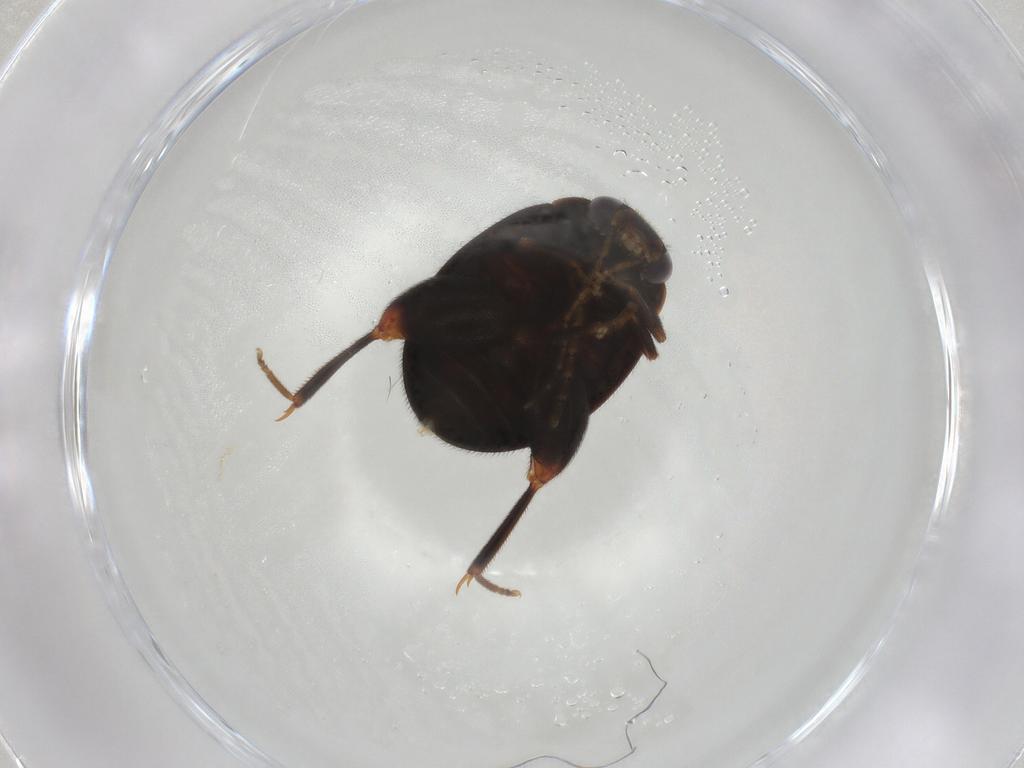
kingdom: Animalia
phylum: Arthropoda
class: Insecta
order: Coleoptera
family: Scirtidae
